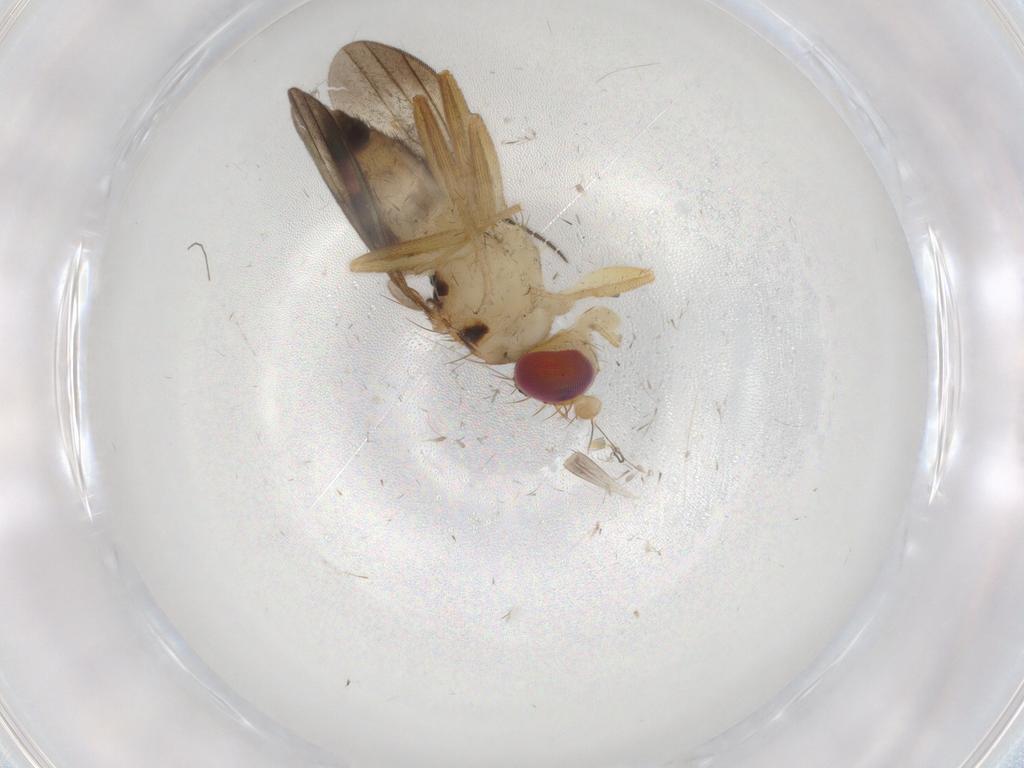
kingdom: Animalia
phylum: Arthropoda
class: Insecta
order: Diptera
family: Clusiidae
